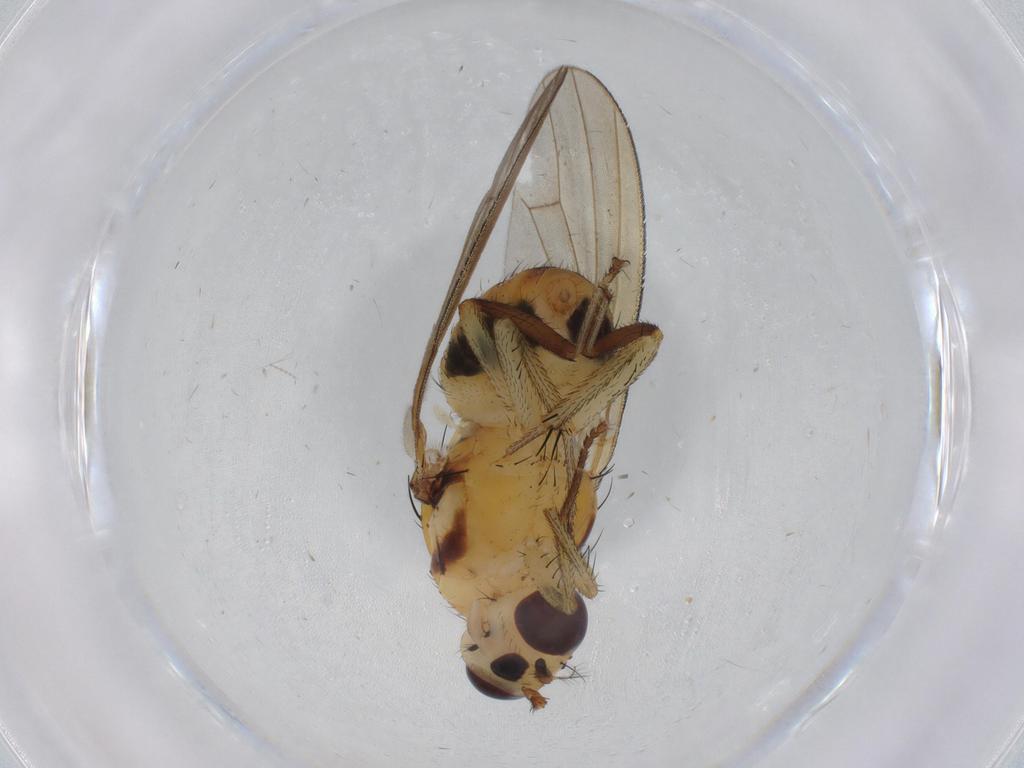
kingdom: Animalia
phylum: Arthropoda
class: Insecta
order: Diptera
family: Lauxaniidae
